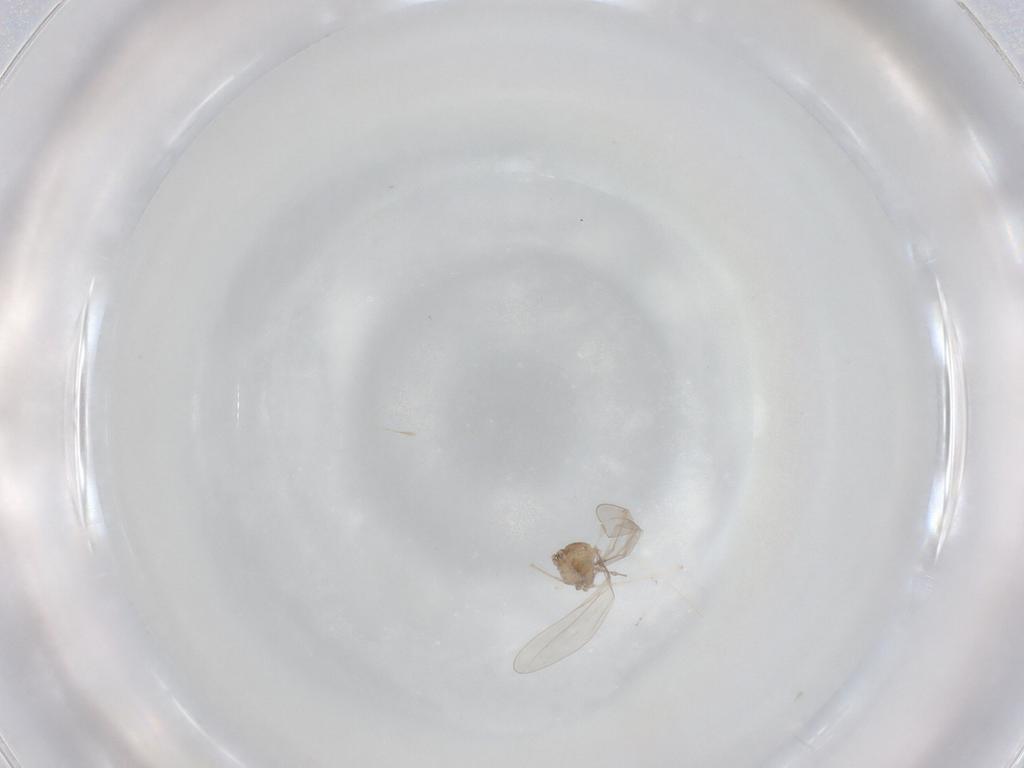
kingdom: Animalia
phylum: Arthropoda
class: Insecta
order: Diptera
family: Cecidomyiidae
